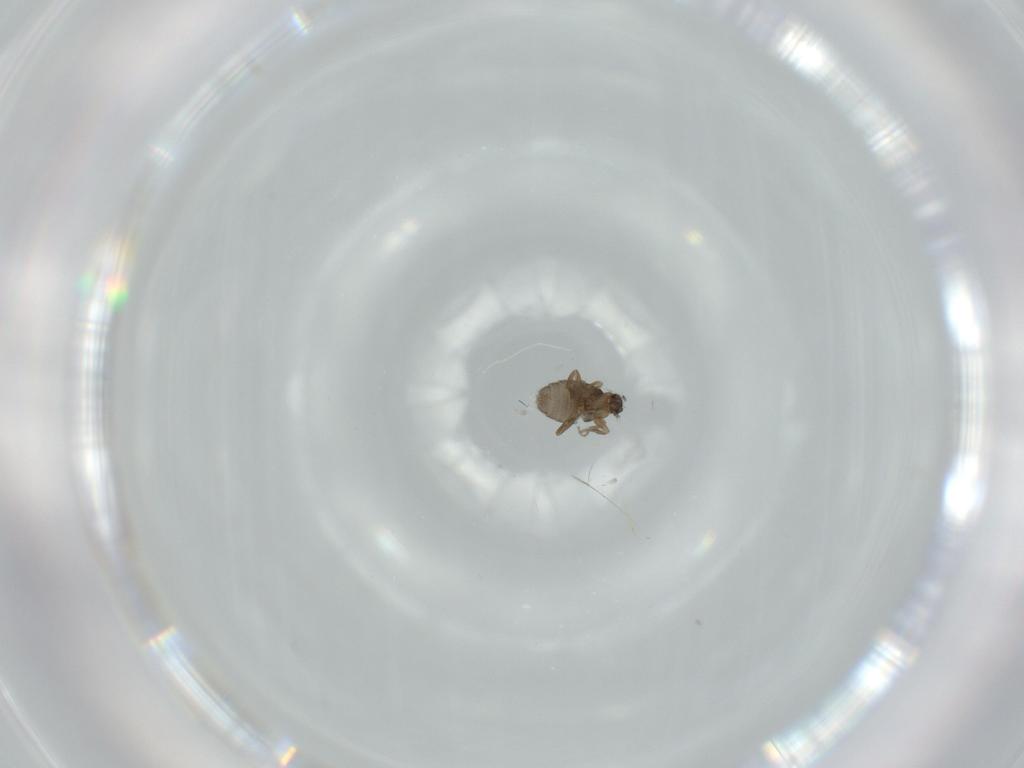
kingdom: Animalia
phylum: Arthropoda
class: Insecta
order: Diptera
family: Phoridae
